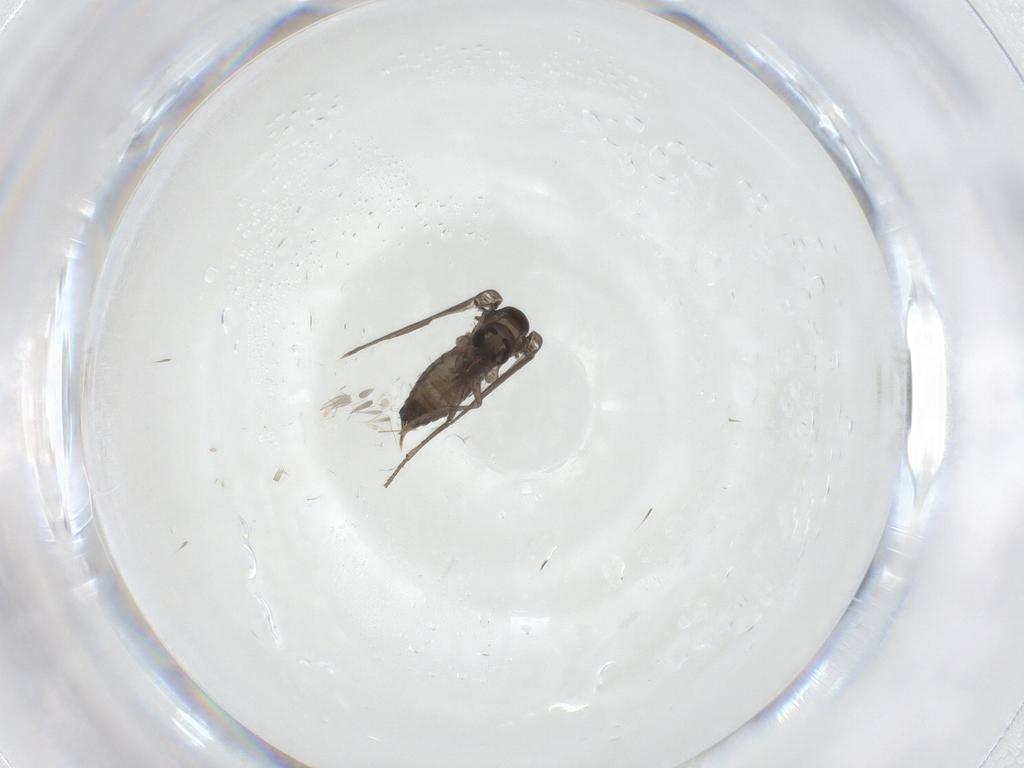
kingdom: Animalia
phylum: Arthropoda
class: Insecta
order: Diptera
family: Psychodidae
